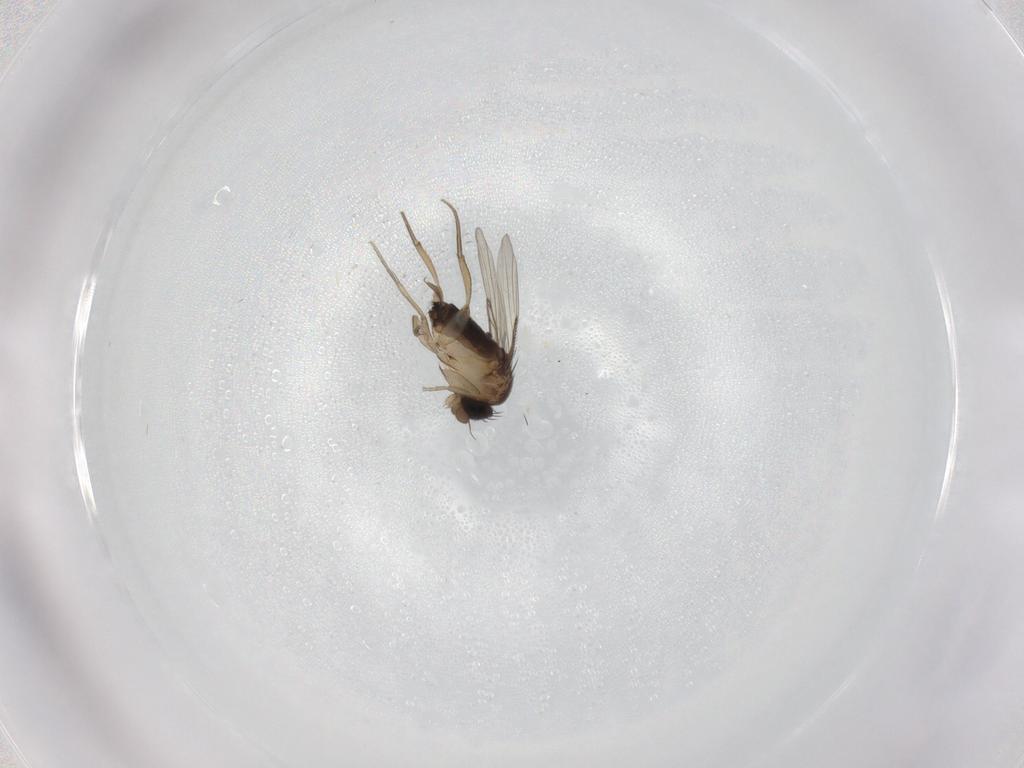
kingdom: Animalia
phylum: Arthropoda
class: Insecta
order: Diptera
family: Ceratopogonidae
